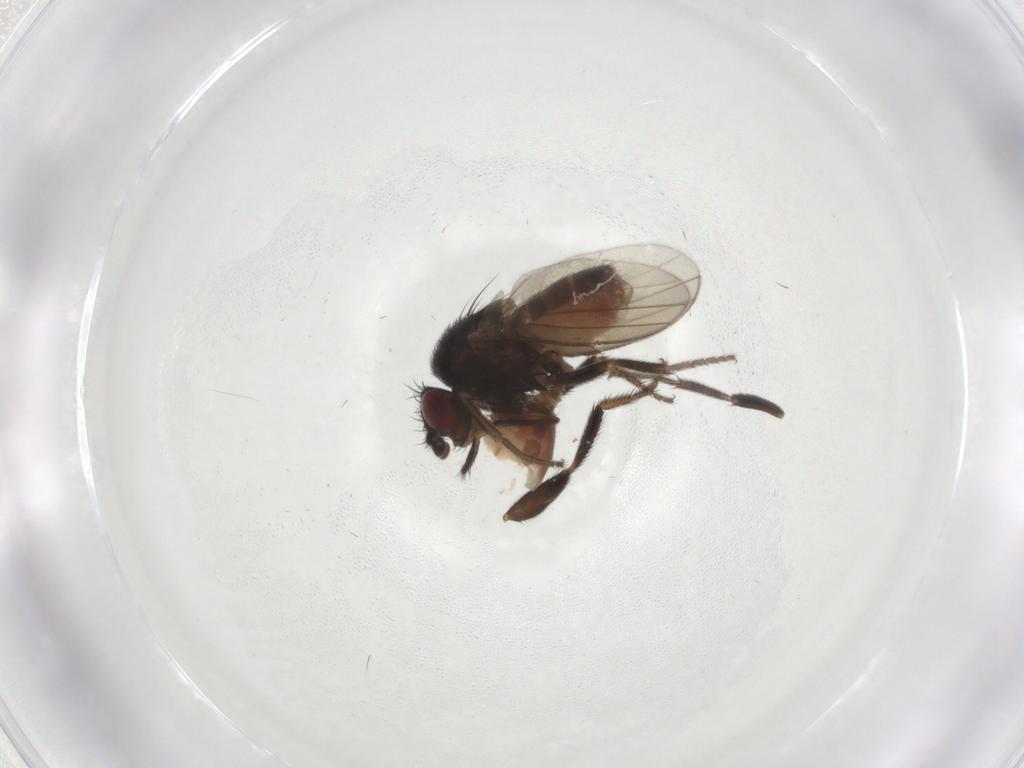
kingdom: Animalia
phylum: Arthropoda
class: Insecta
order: Diptera
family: Milichiidae
